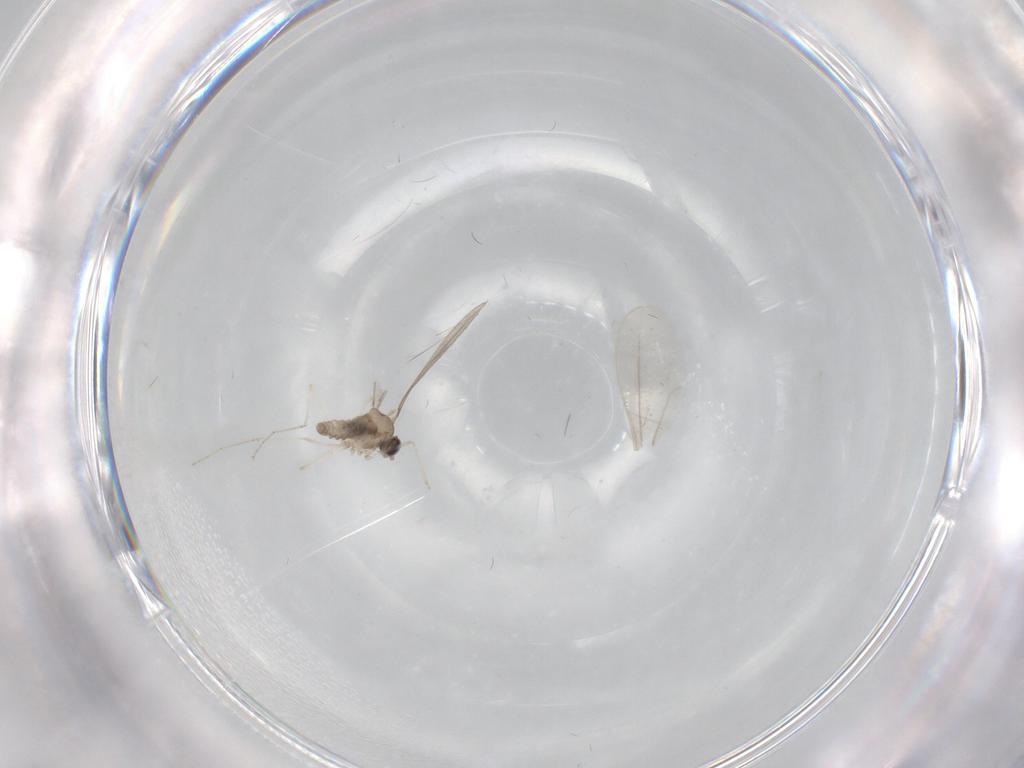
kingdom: Animalia
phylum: Arthropoda
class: Insecta
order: Diptera
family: Cecidomyiidae
